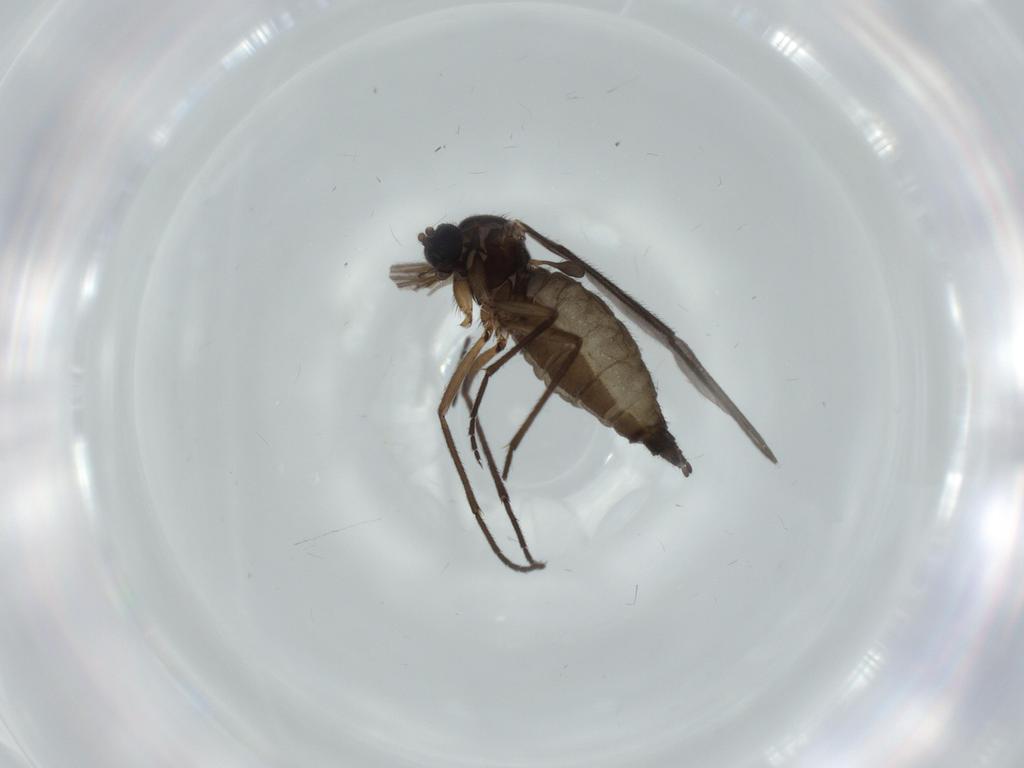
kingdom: Animalia
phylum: Arthropoda
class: Insecta
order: Diptera
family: Sciaridae
